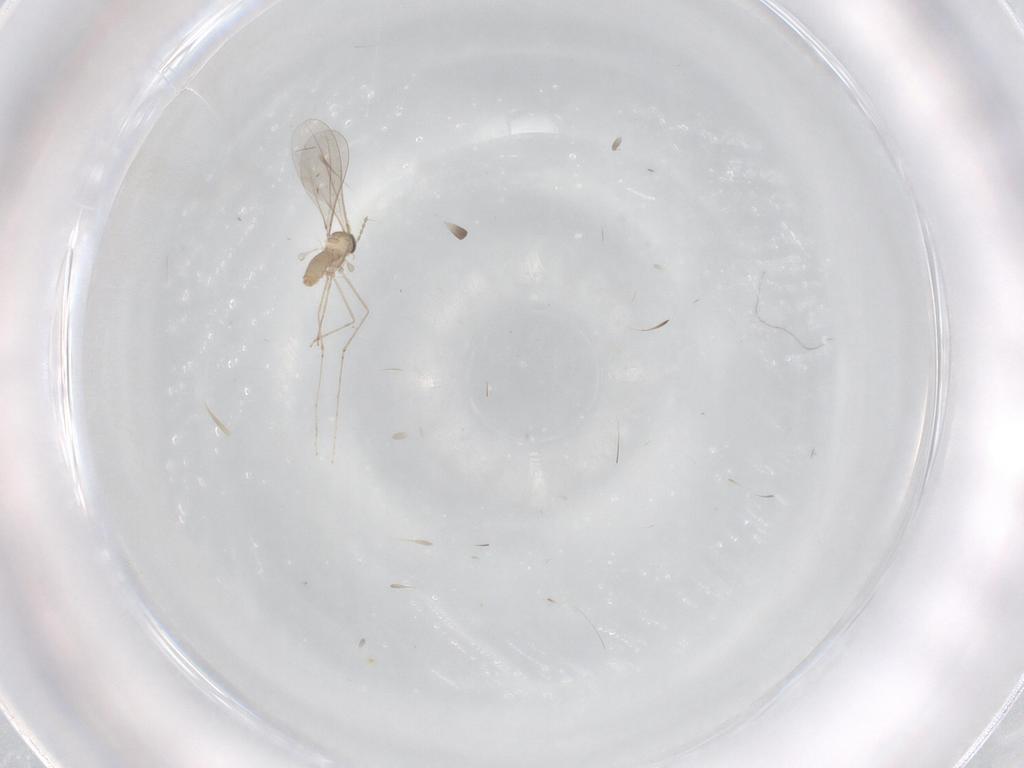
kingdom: Animalia
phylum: Arthropoda
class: Insecta
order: Diptera
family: Cecidomyiidae
